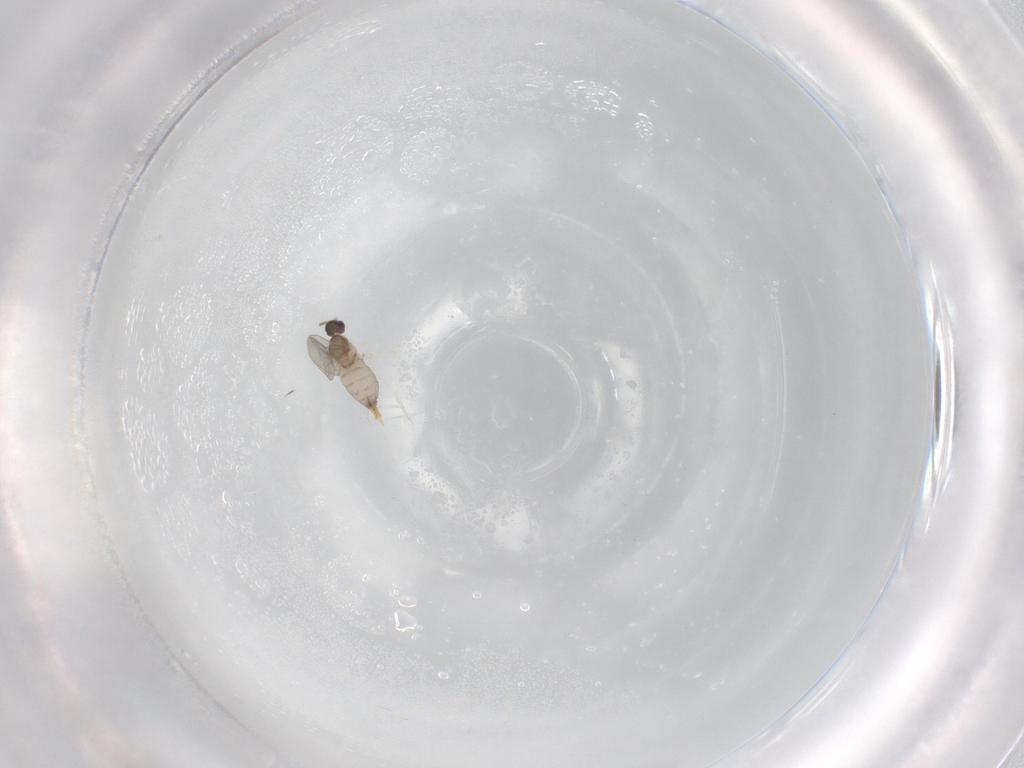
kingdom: Animalia
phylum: Arthropoda
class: Insecta
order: Diptera
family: Cecidomyiidae
